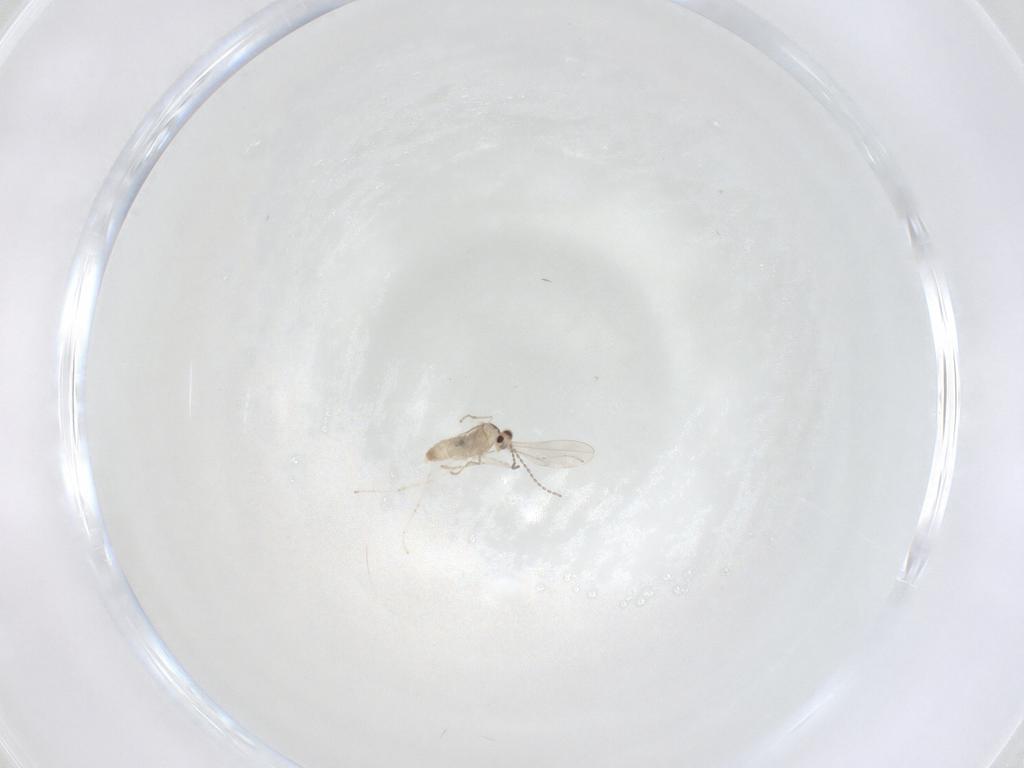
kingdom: Animalia
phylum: Arthropoda
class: Insecta
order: Diptera
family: Cecidomyiidae
